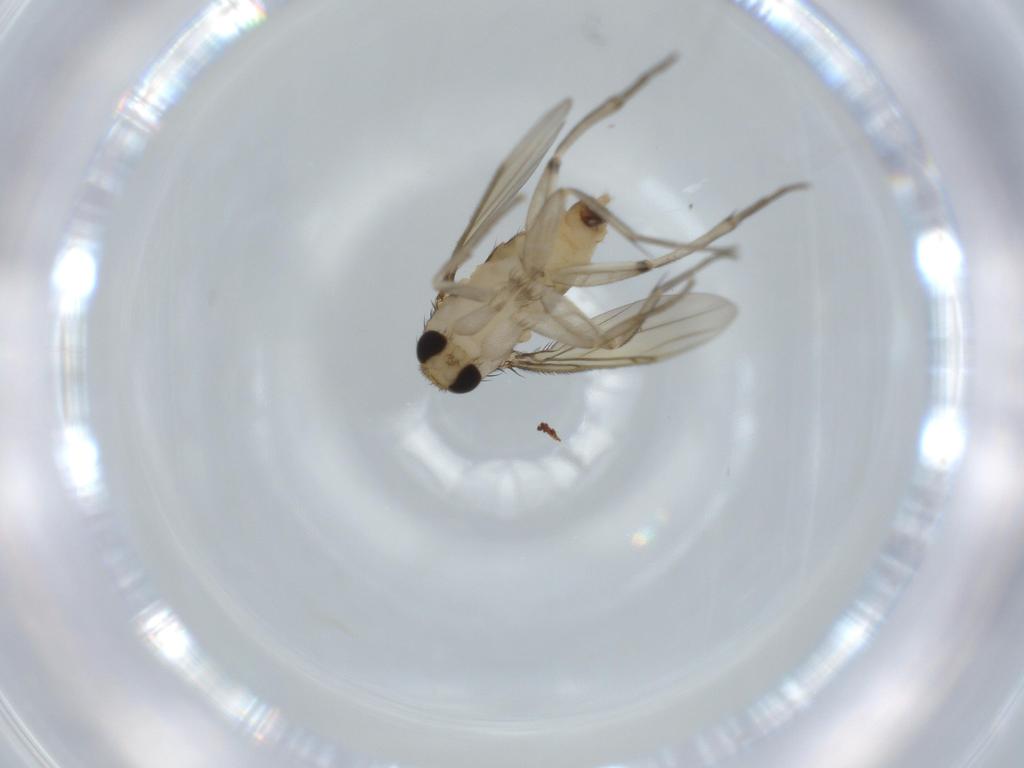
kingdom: Animalia
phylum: Arthropoda
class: Insecta
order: Diptera
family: Phoridae
